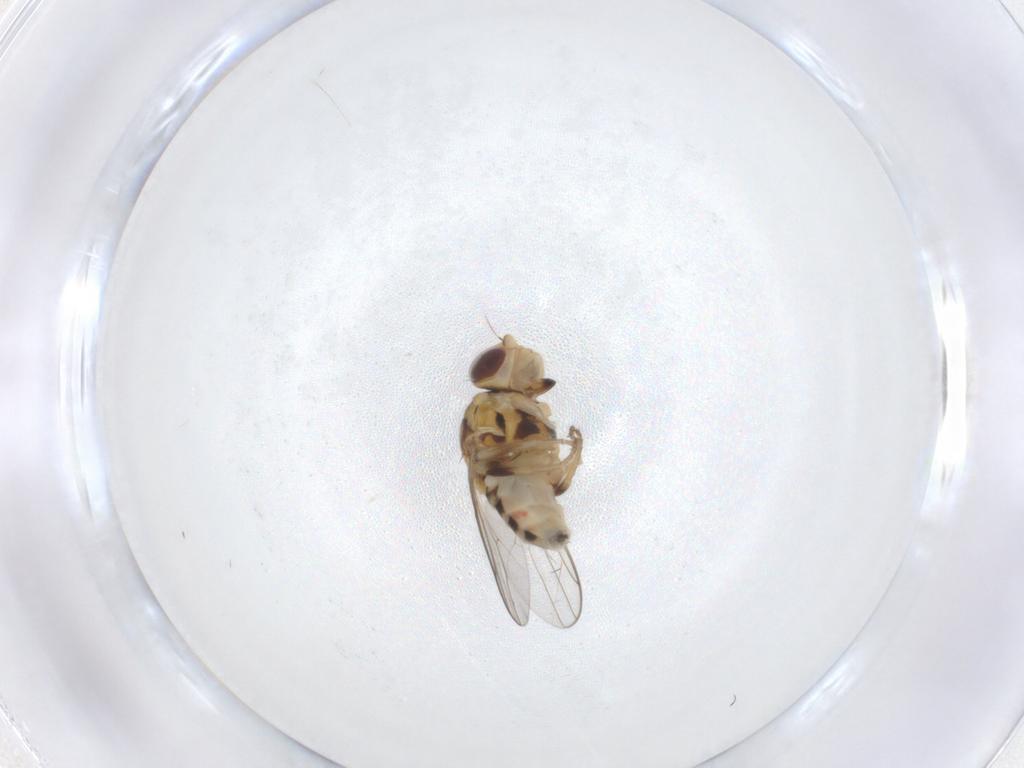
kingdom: Animalia
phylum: Arthropoda
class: Insecta
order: Diptera
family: Chloropidae
